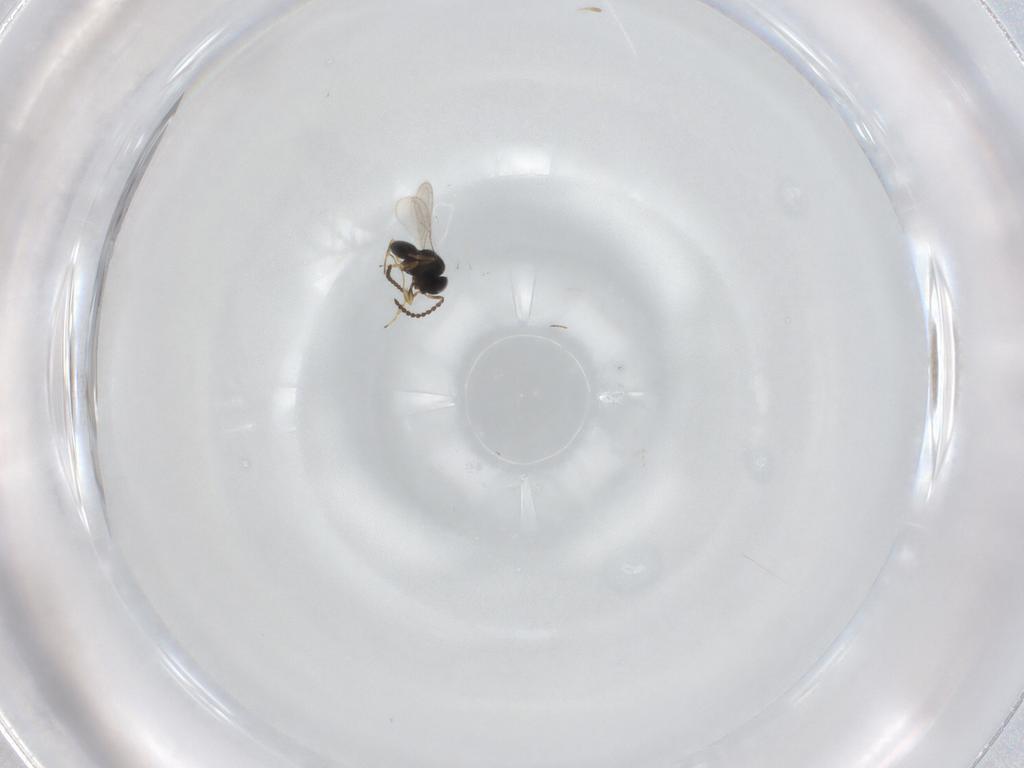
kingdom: Animalia
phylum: Arthropoda
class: Insecta
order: Hymenoptera
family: Scelionidae
